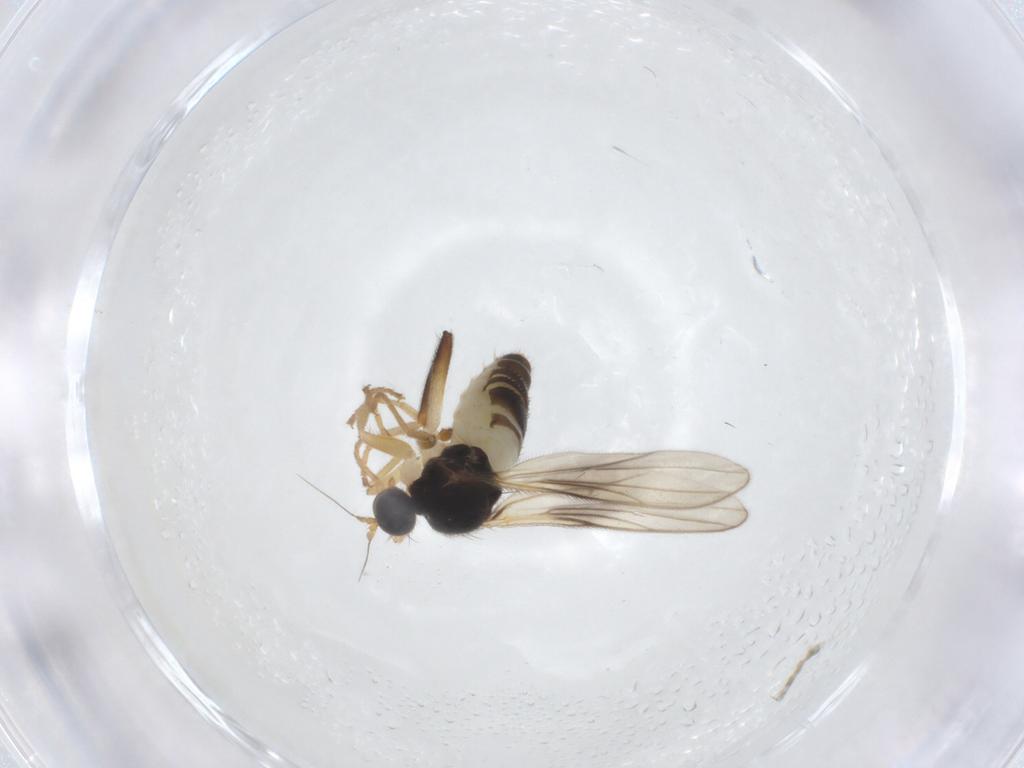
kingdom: Animalia
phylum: Arthropoda
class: Insecta
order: Diptera
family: Hybotidae
